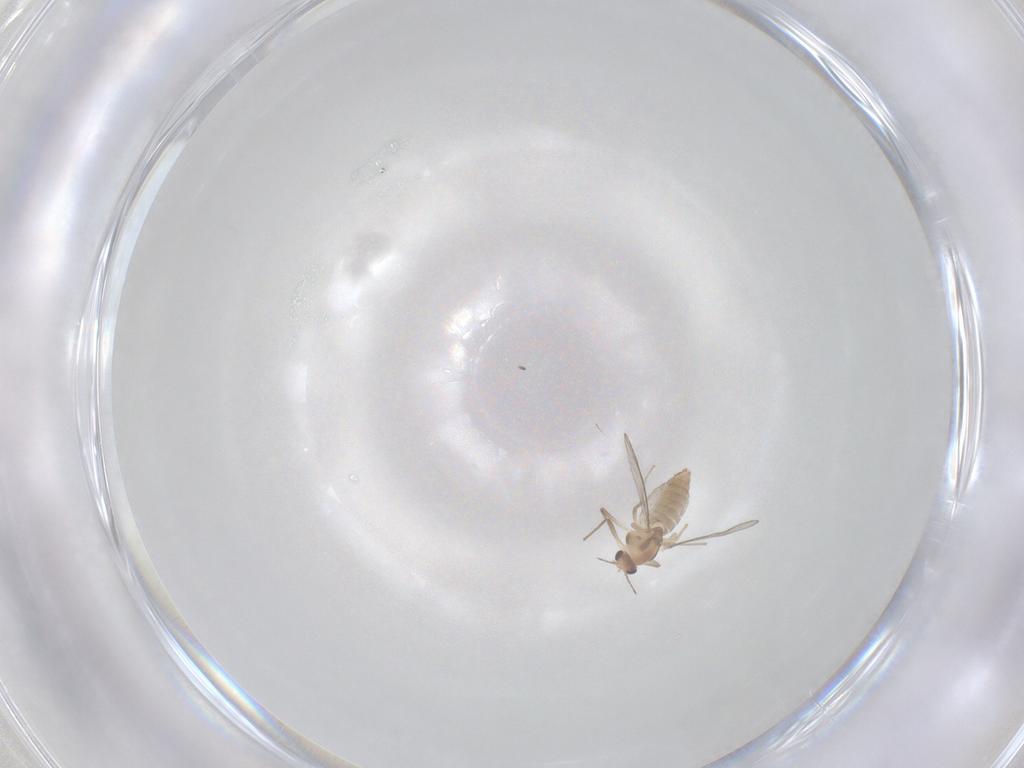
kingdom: Animalia
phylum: Arthropoda
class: Insecta
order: Diptera
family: Chironomidae
